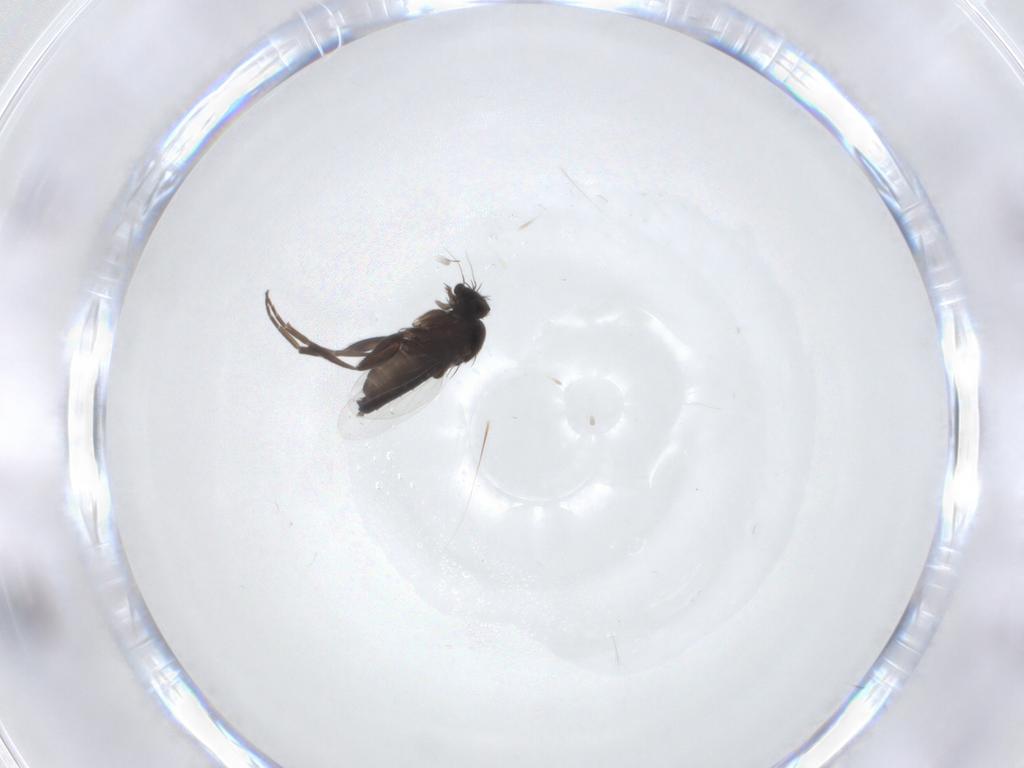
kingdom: Animalia
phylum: Arthropoda
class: Insecta
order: Diptera
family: Phoridae
